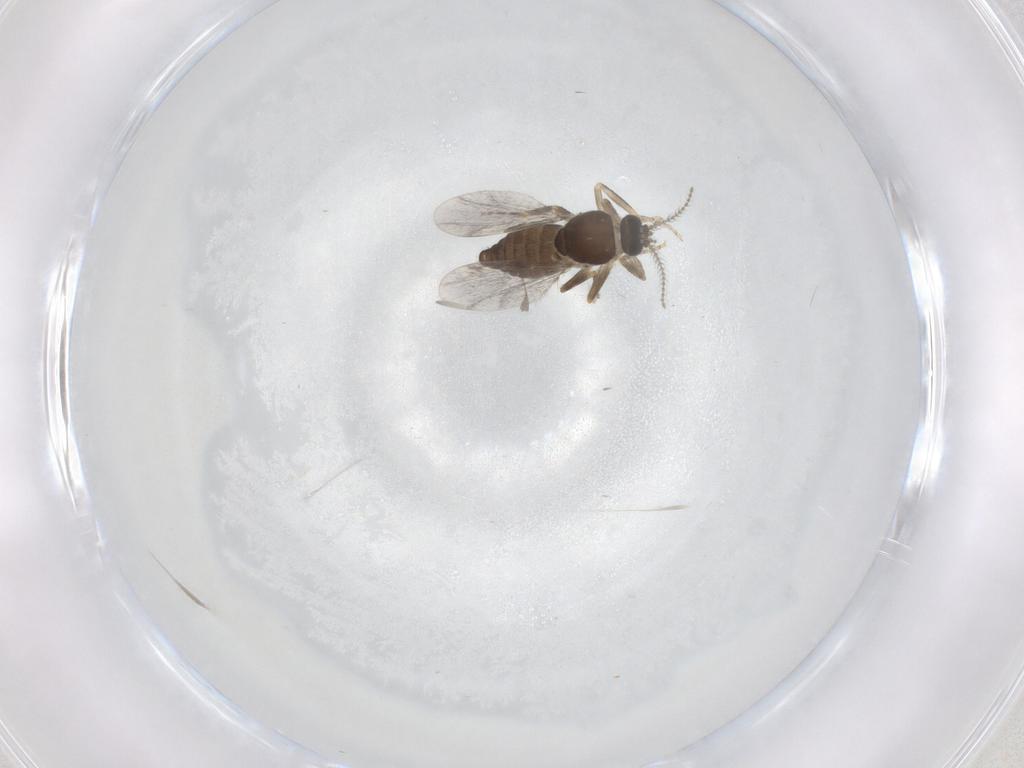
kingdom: Animalia
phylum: Arthropoda
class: Insecta
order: Diptera
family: Ceratopogonidae
